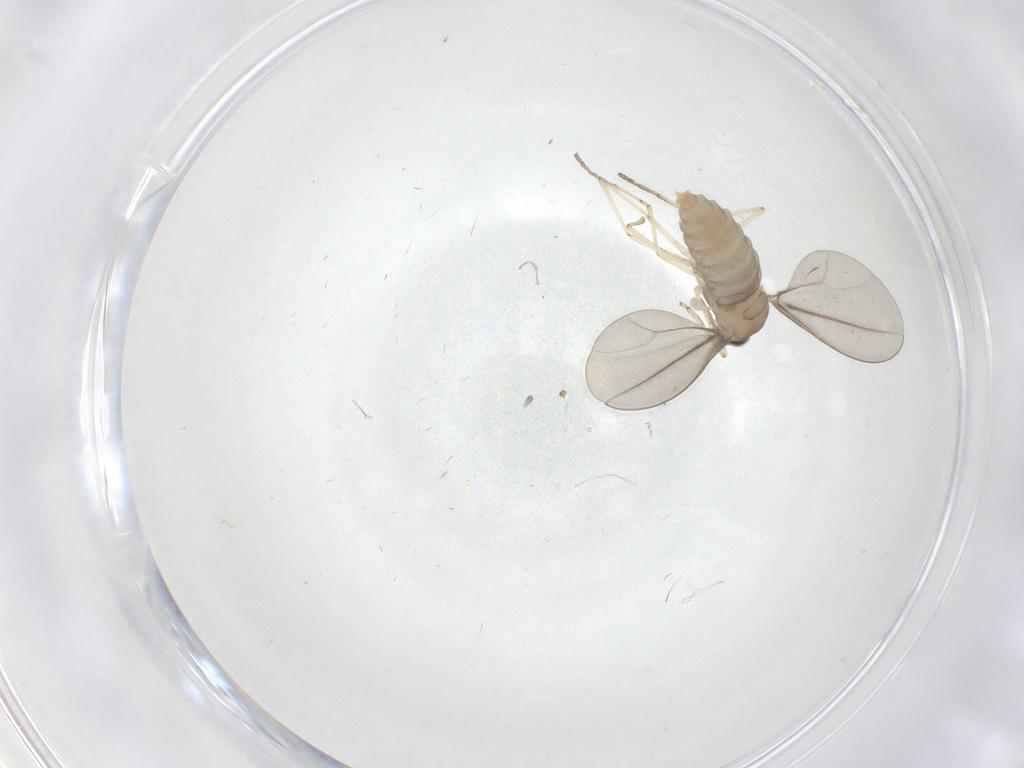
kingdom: Animalia
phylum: Arthropoda
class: Insecta
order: Diptera
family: Cecidomyiidae
